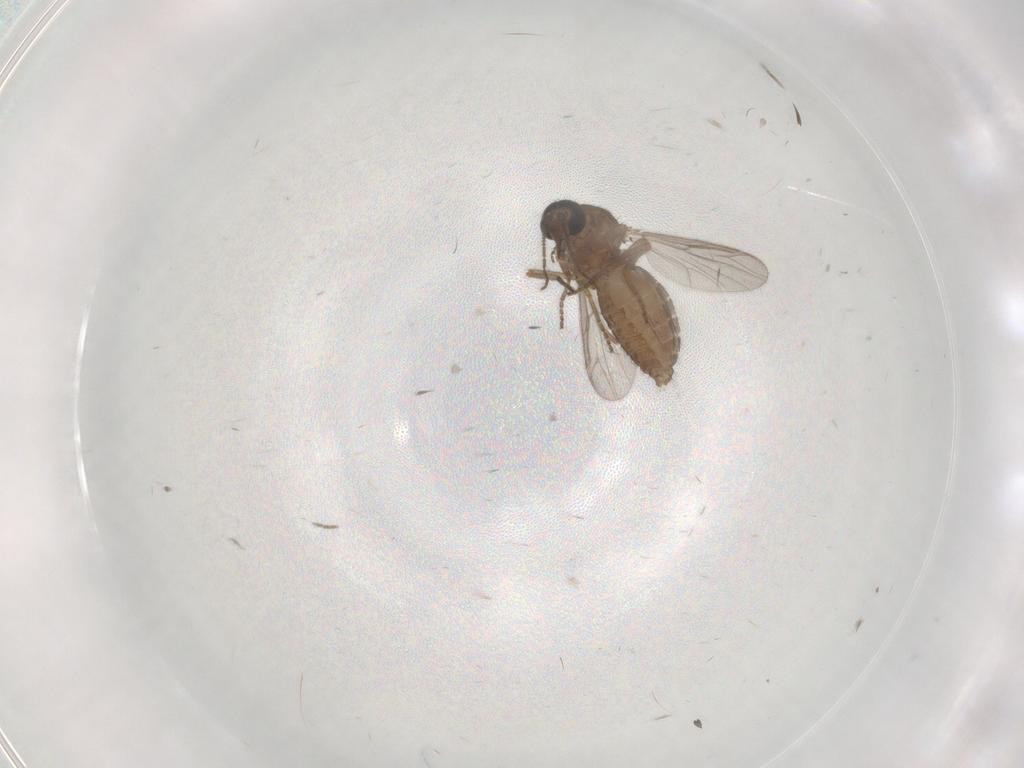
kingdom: Animalia
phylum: Arthropoda
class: Insecta
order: Diptera
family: Ceratopogonidae
